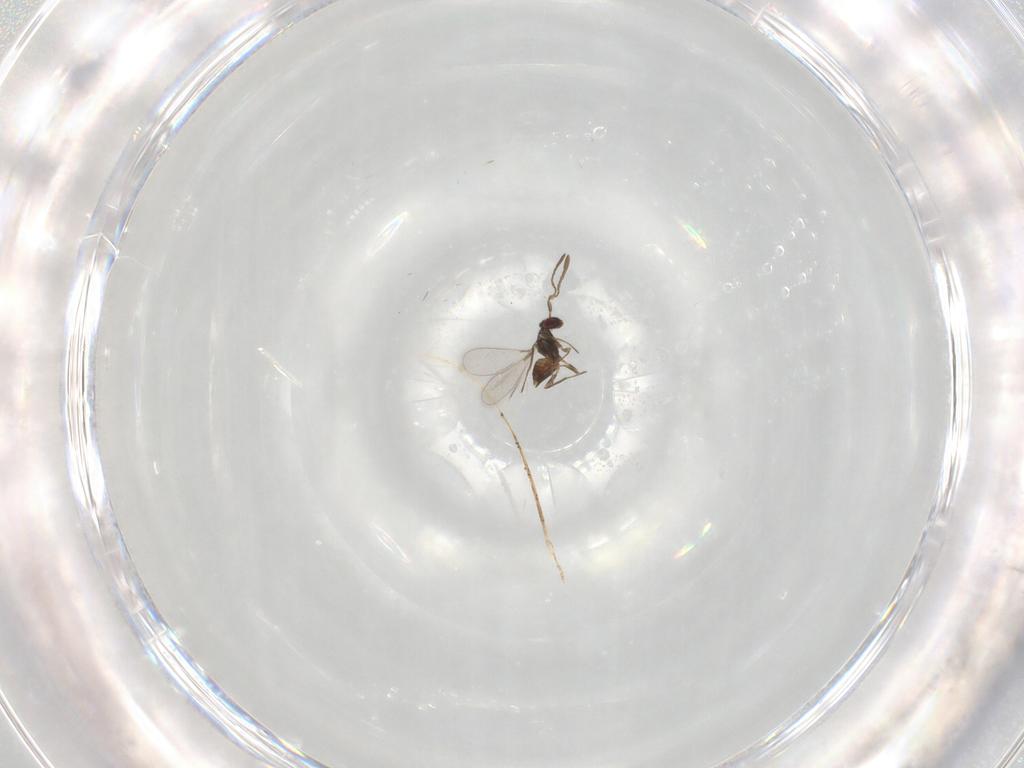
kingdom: Animalia
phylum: Arthropoda
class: Insecta
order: Hymenoptera
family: Mymaridae
